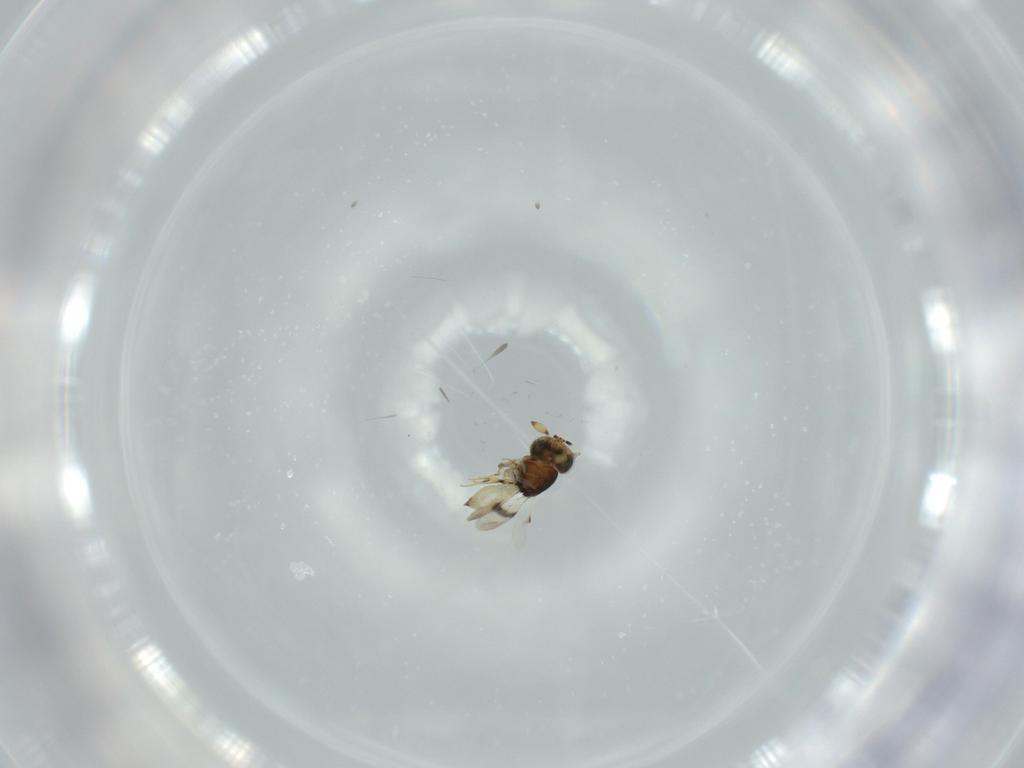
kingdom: Animalia
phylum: Arthropoda
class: Insecta
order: Hymenoptera
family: Scelionidae
